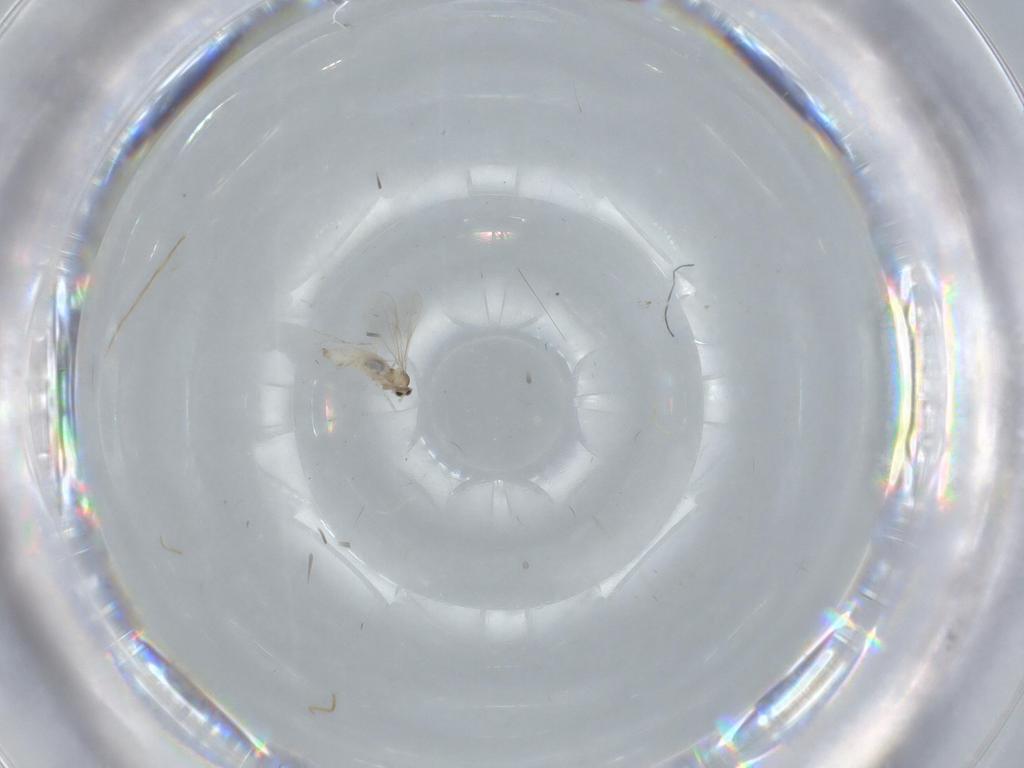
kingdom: Animalia
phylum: Arthropoda
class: Insecta
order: Diptera
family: Cecidomyiidae
